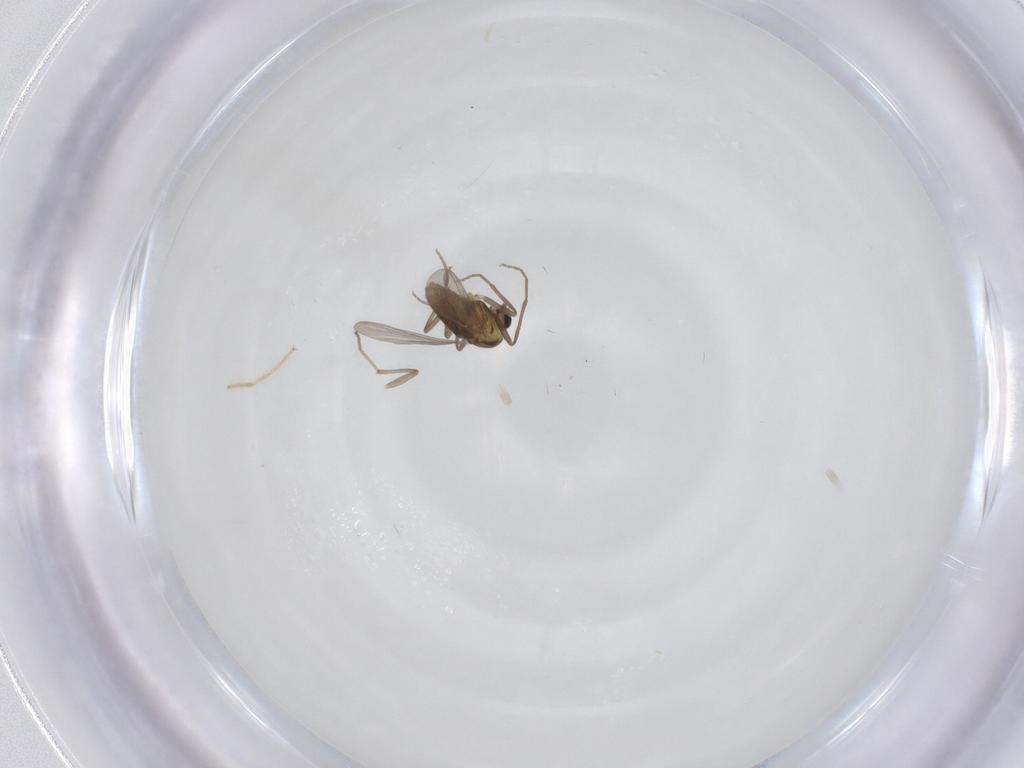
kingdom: Animalia
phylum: Arthropoda
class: Insecta
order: Diptera
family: Chironomidae
